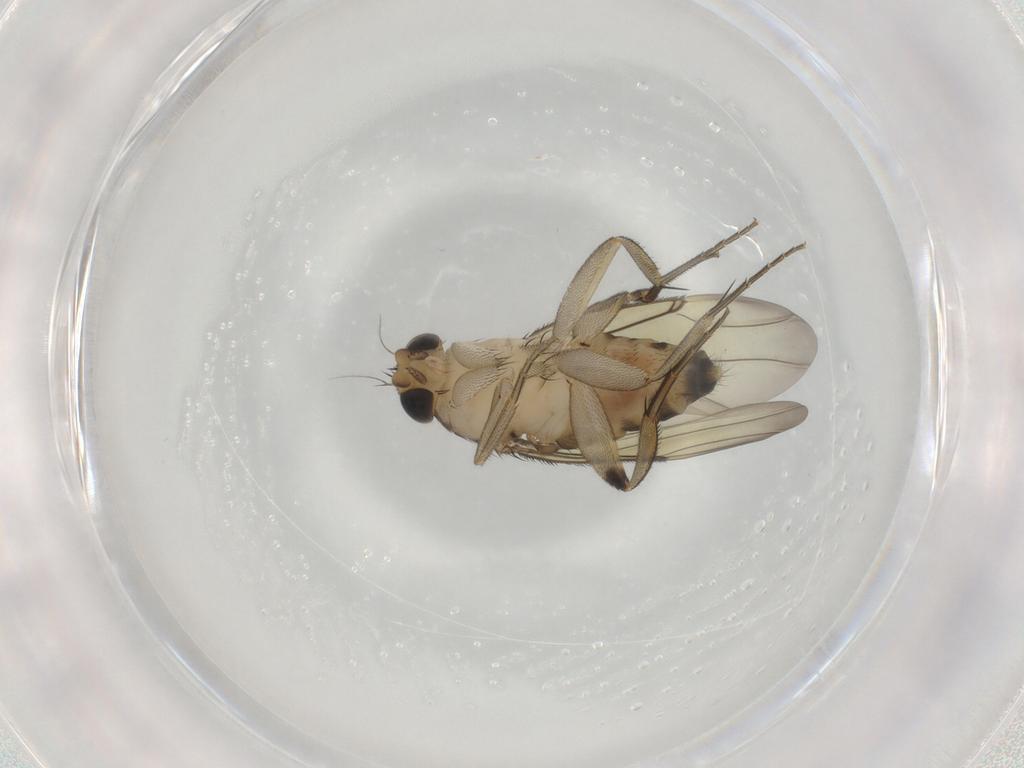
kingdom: Animalia
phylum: Arthropoda
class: Insecta
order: Diptera
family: Phoridae
